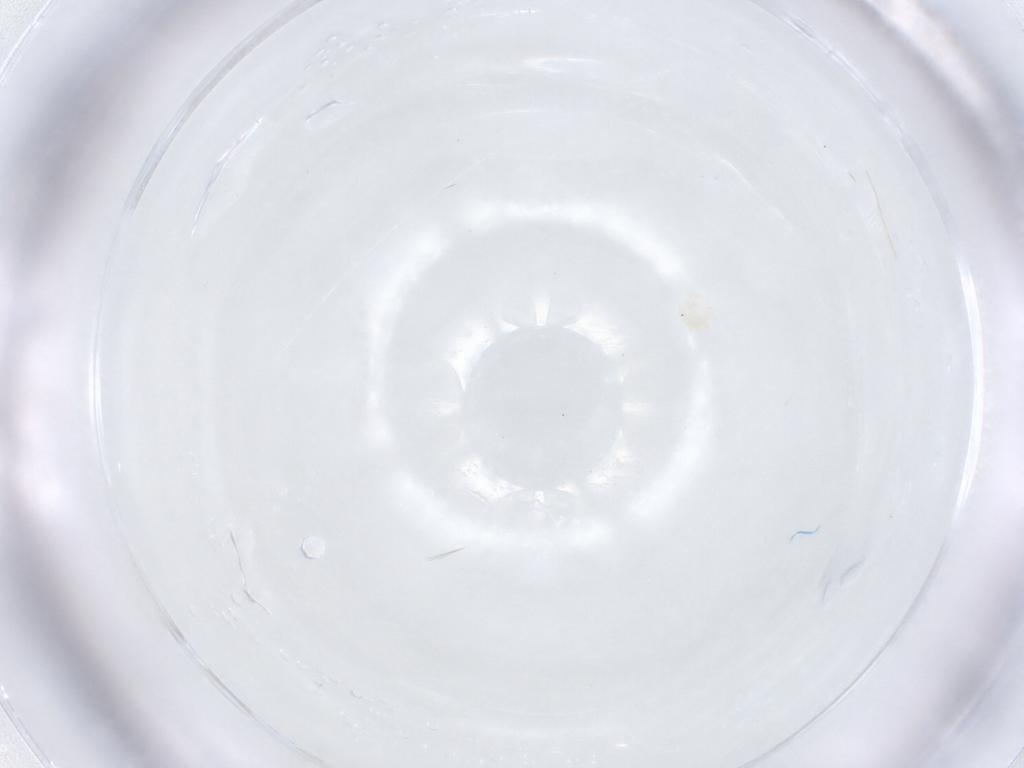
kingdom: Animalia
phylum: Arthropoda
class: Arachnida
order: Trombidiformes
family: Anystidae
